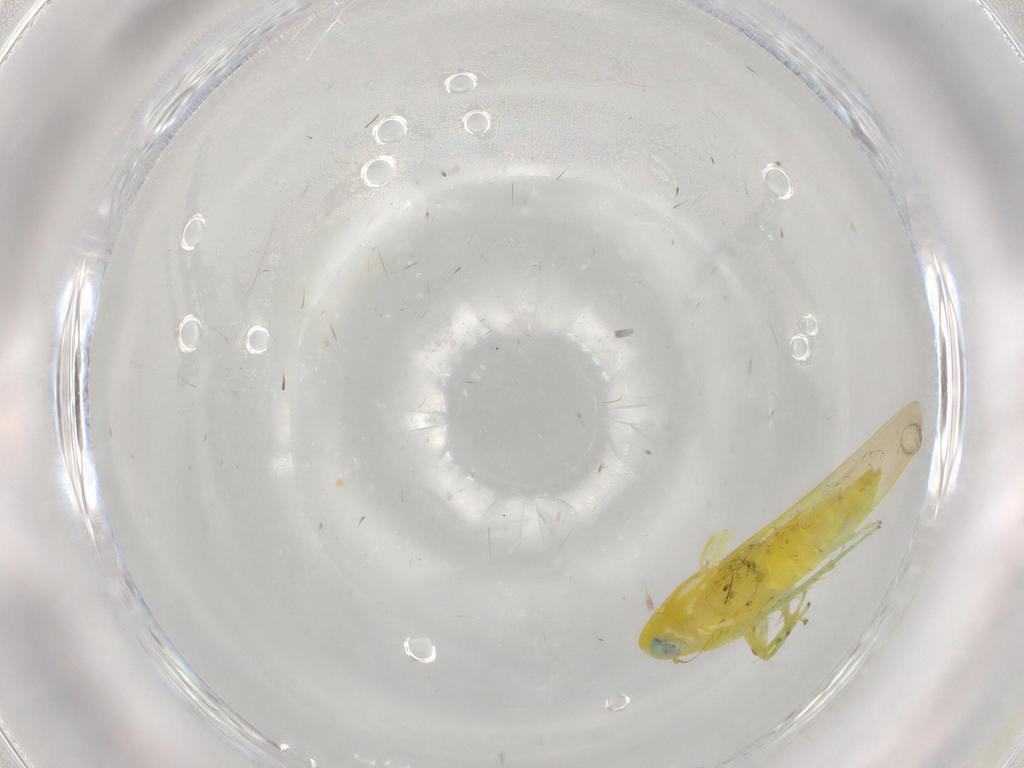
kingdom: Animalia
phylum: Arthropoda
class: Insecta
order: Hemiptera
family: Cicadellidae
